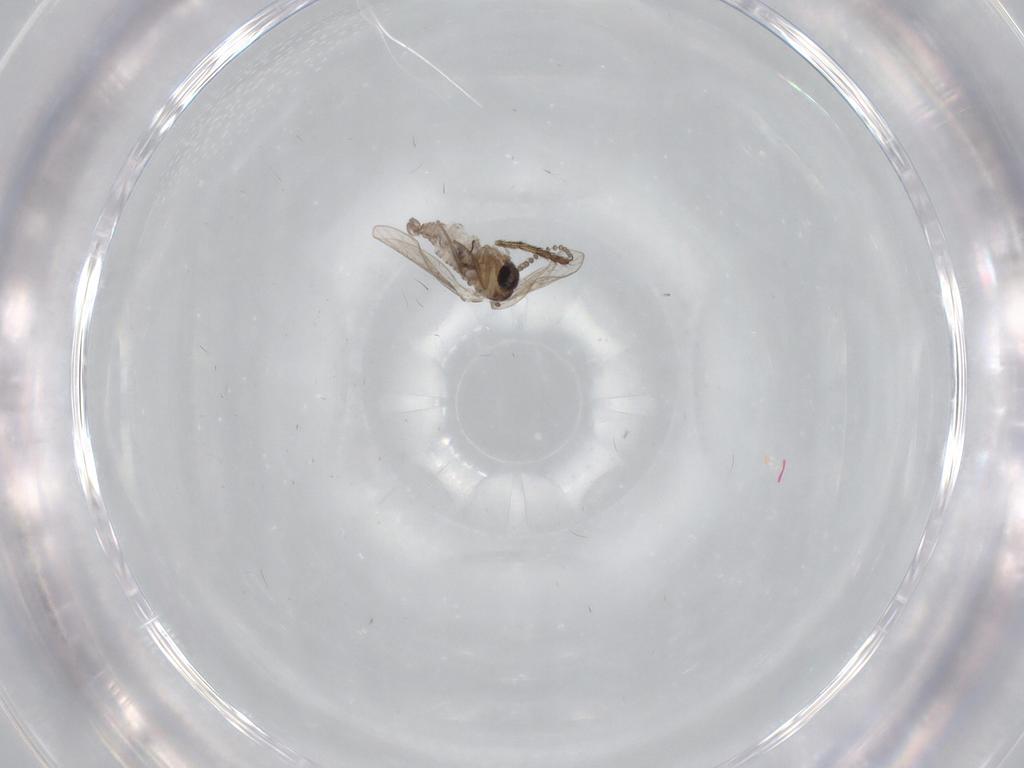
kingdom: Animalia
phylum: Arthropoda
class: Insecta
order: Diptera
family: Psychodidae
